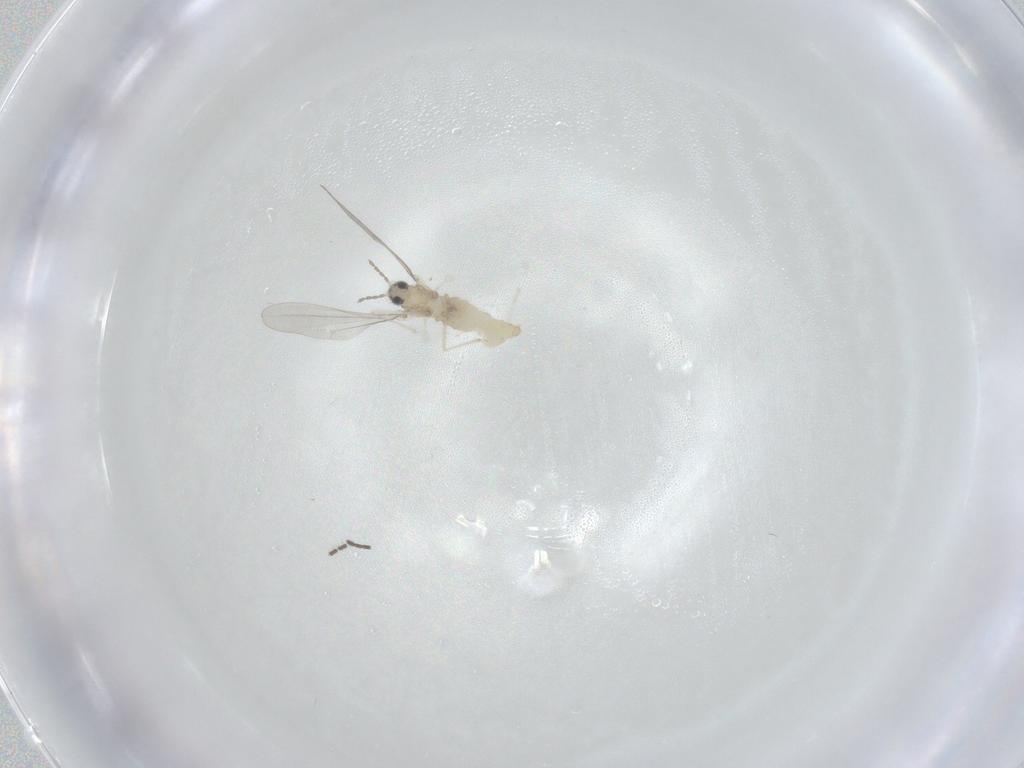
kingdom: Animalia
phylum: Arthropoda
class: Insecta
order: Diptera
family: Cecidomyiidae
